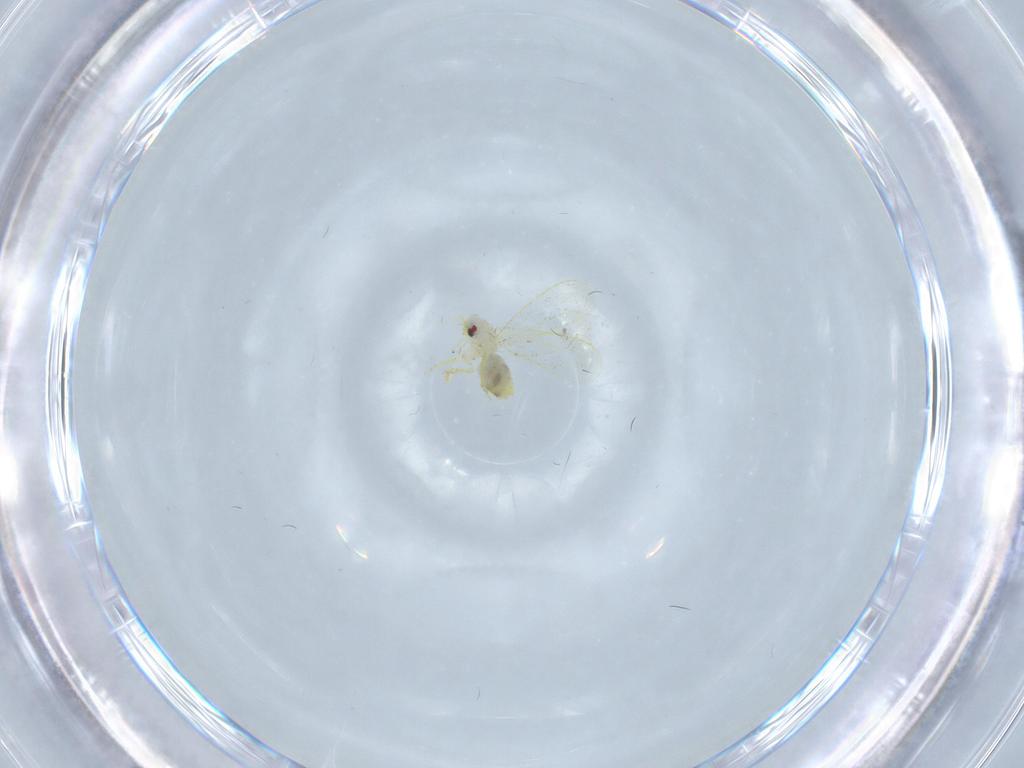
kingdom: Animalia
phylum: Arthropoda
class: Insecta
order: Hemiptera
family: Aleyrodidae
